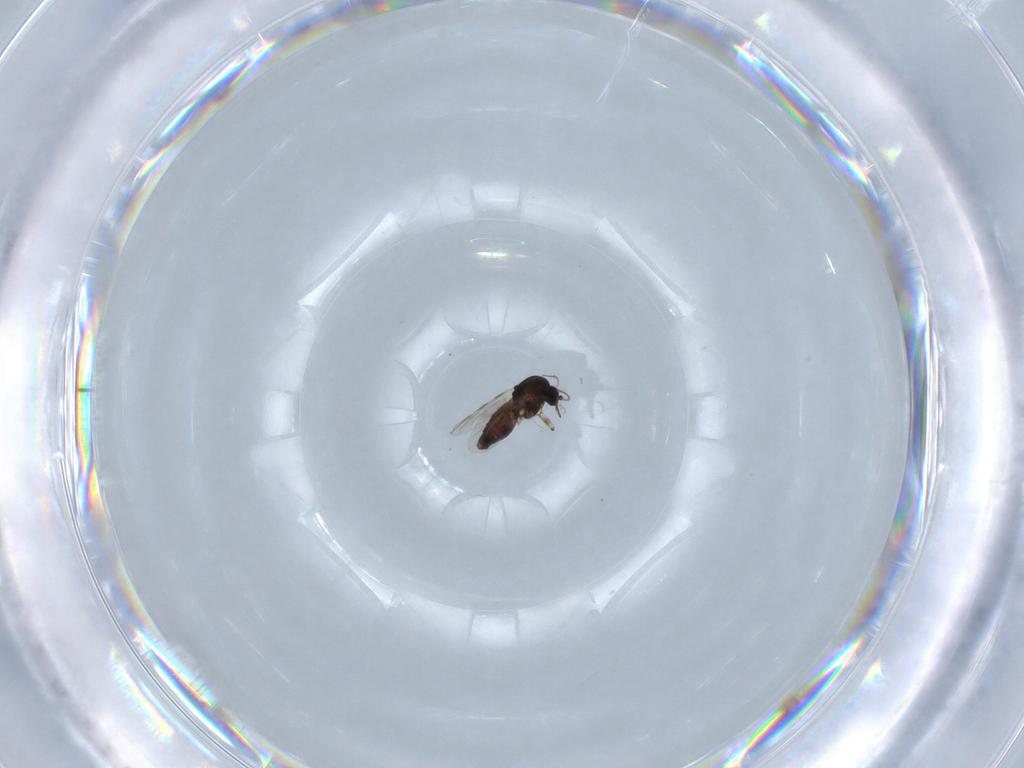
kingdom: Animalia
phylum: Arthropoda
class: Insecta
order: Diptera
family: Psychodidae
